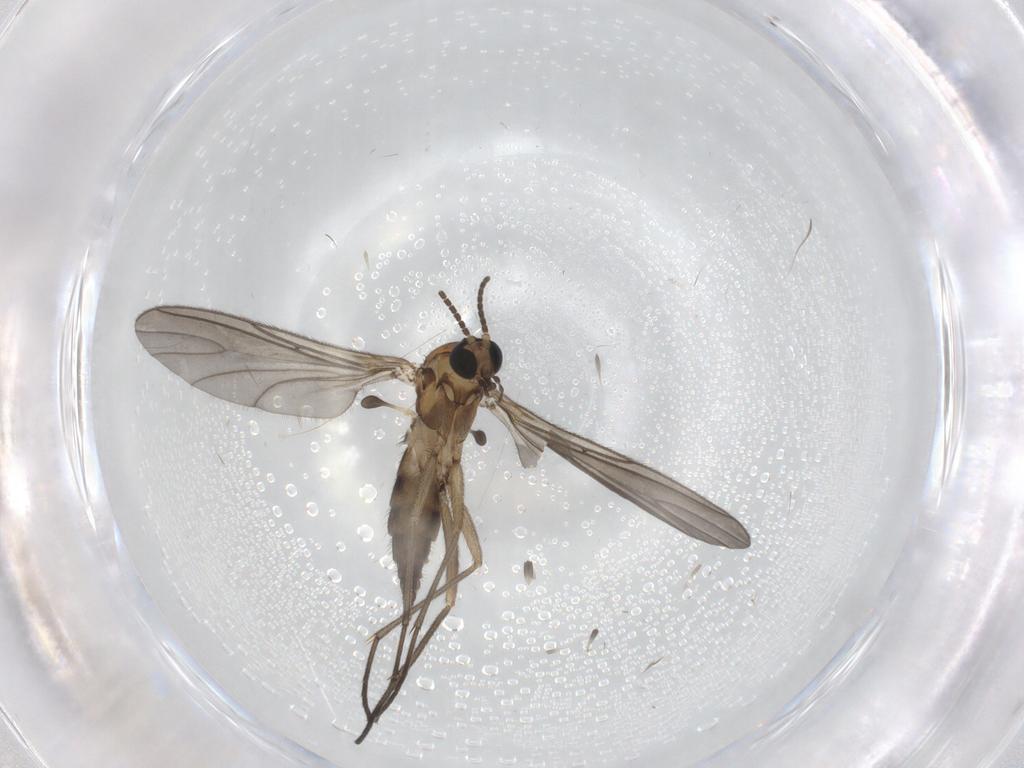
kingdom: Animalia
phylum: Arthropoda
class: Insecta
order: Diptera
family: Sciaridae
